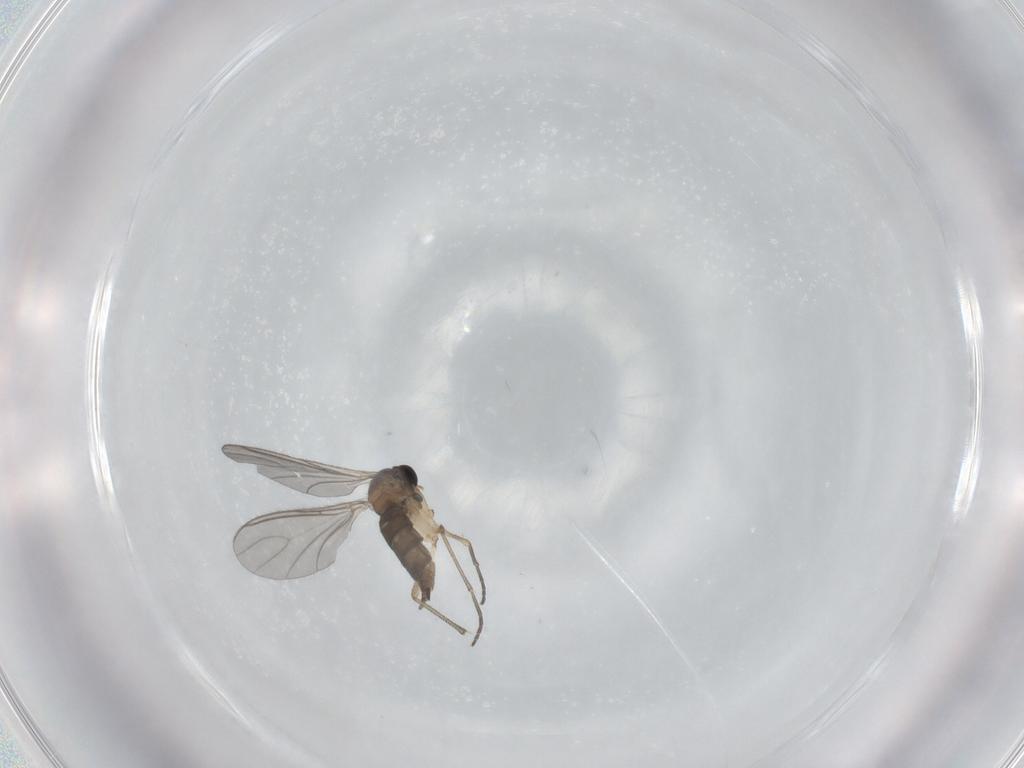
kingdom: Animalia
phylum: Arthropoda
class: Insecta
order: Diptera
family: Sciaridae
